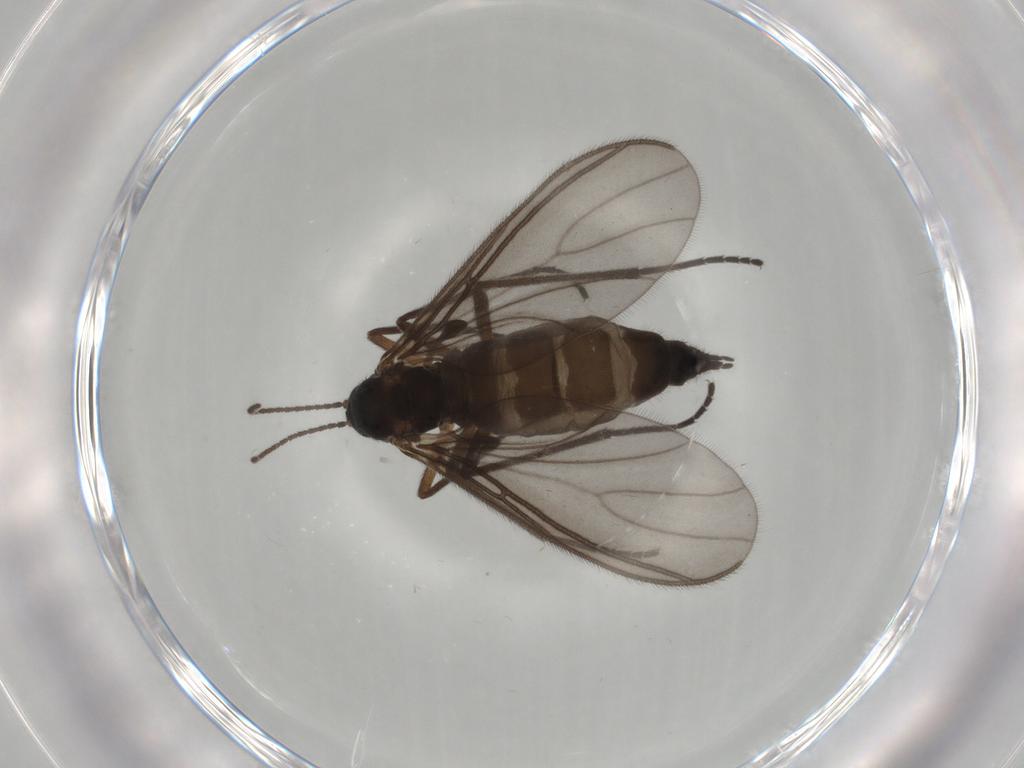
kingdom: Animalia
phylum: Arthropoda
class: Insecta
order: Diptera
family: Sciaridae
